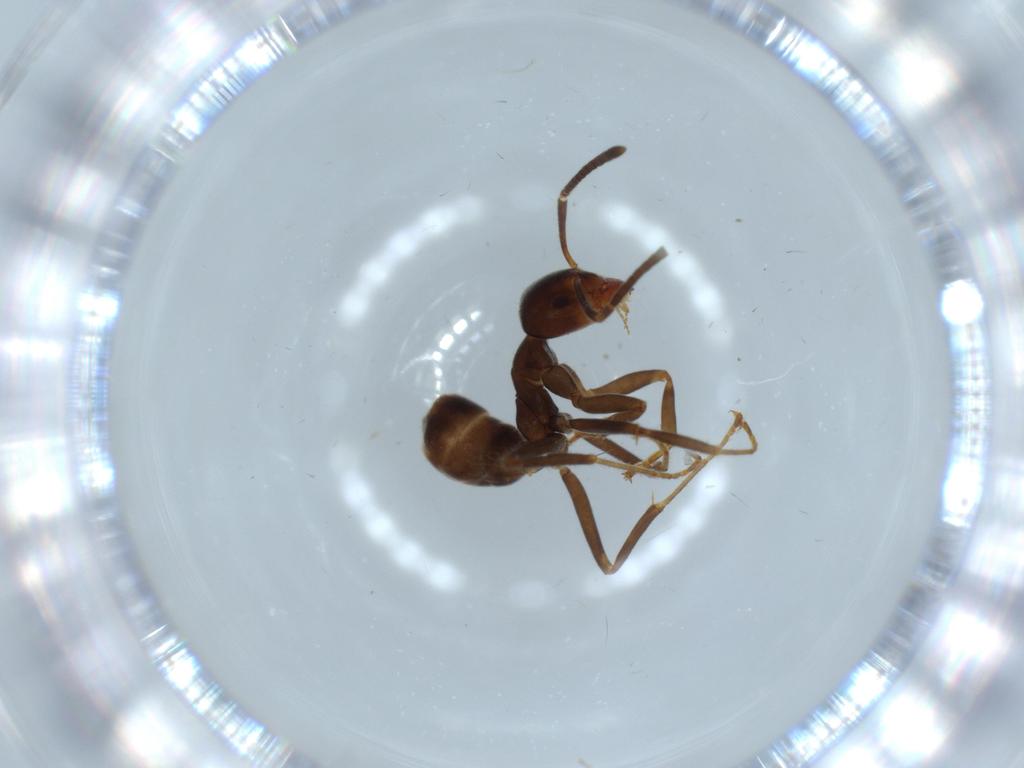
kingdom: Animalia
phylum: Arthropoda
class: Insecta
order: Hymenoptera
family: Formicidae
